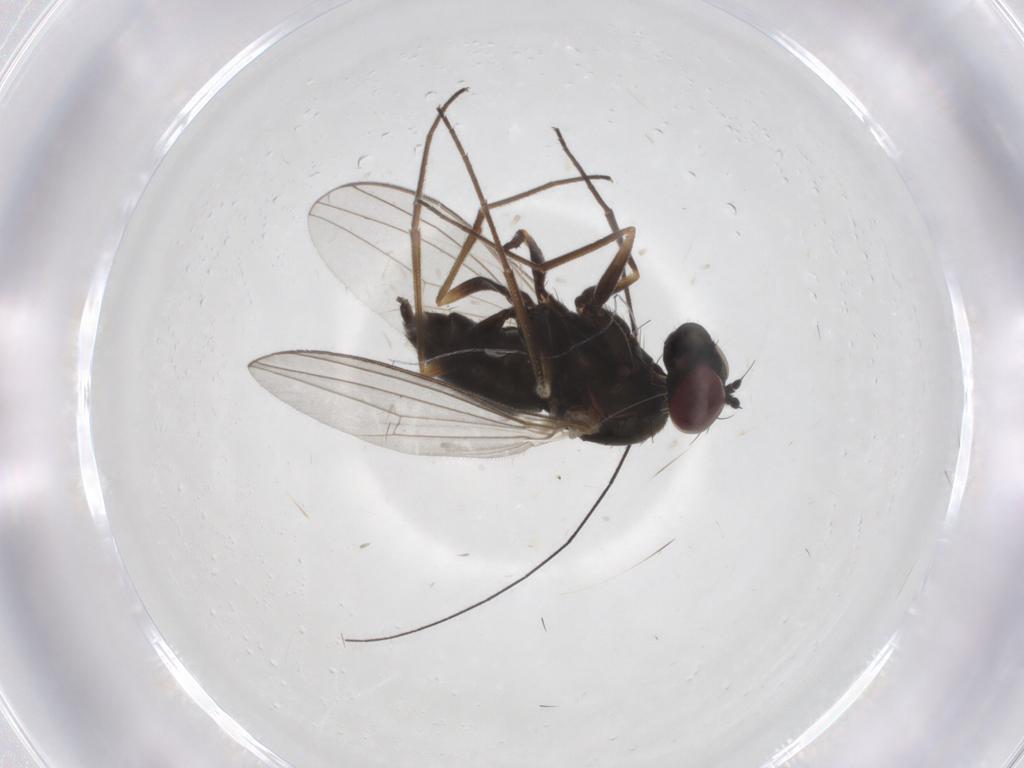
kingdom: Animalia
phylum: Arthropoda
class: Insecta
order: Diptera
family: Dolichopodidae
